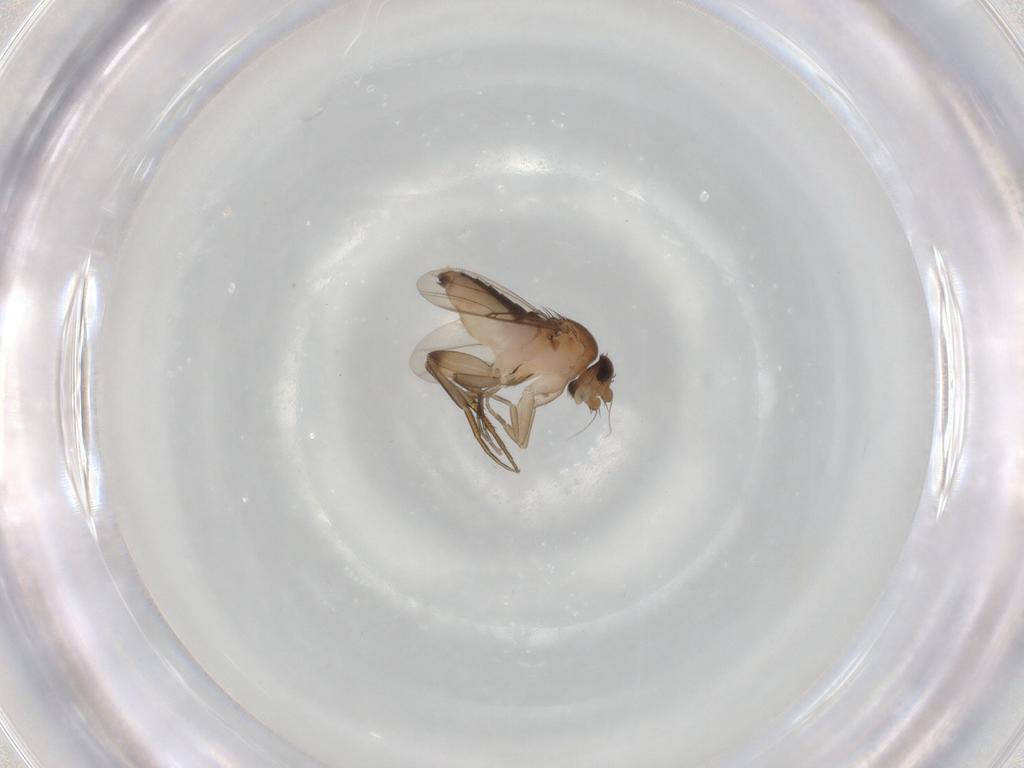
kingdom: Animalia
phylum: Arthropoda
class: Insecta
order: Diptera
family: Phoridae
